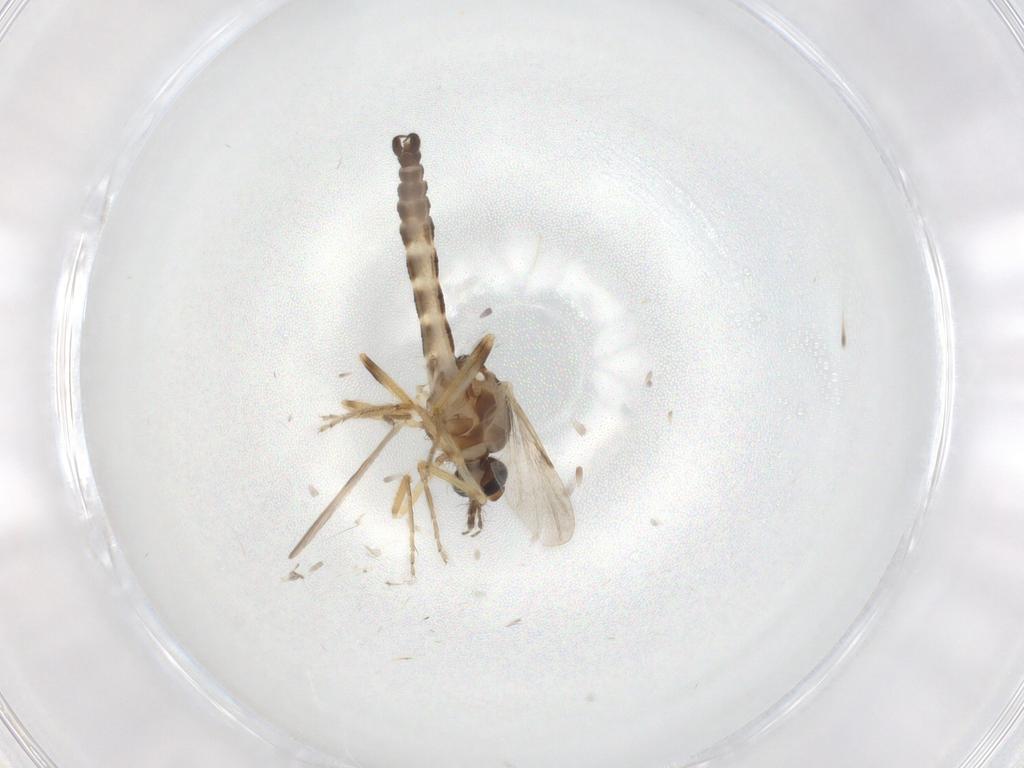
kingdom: Animalia
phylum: Arthropoda
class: Insecta
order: Diptera
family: Ceratopogonidae
